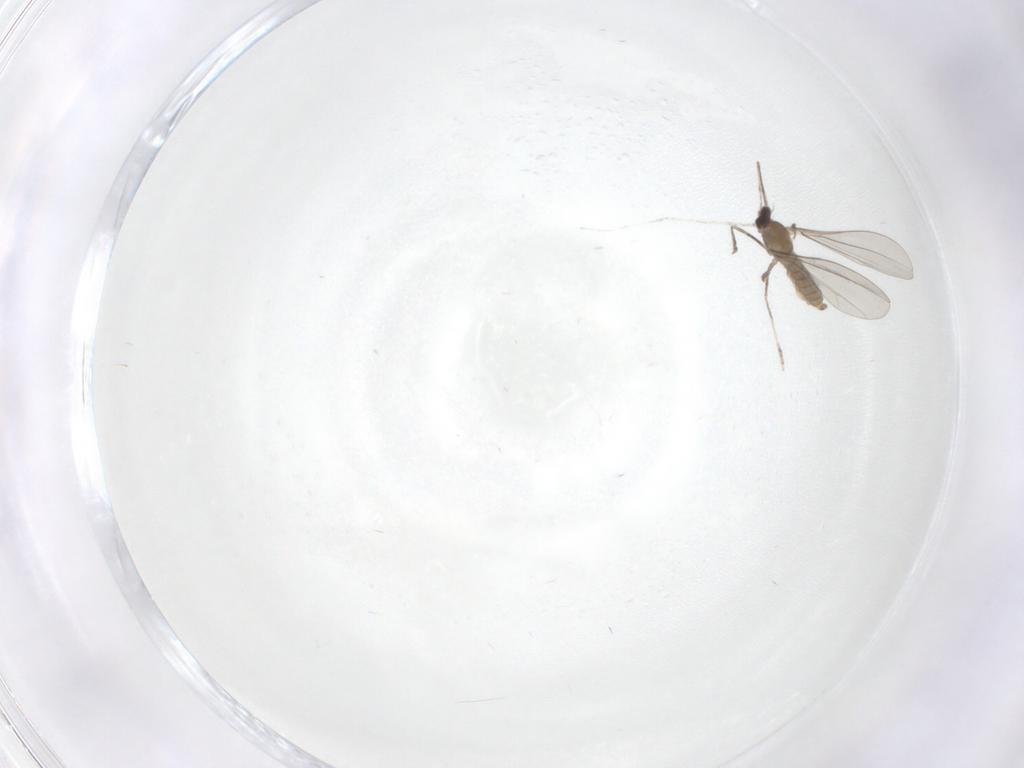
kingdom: Animalia
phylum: Arthropoda
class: Insecta
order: Diptera
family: Cecidomyiidae
